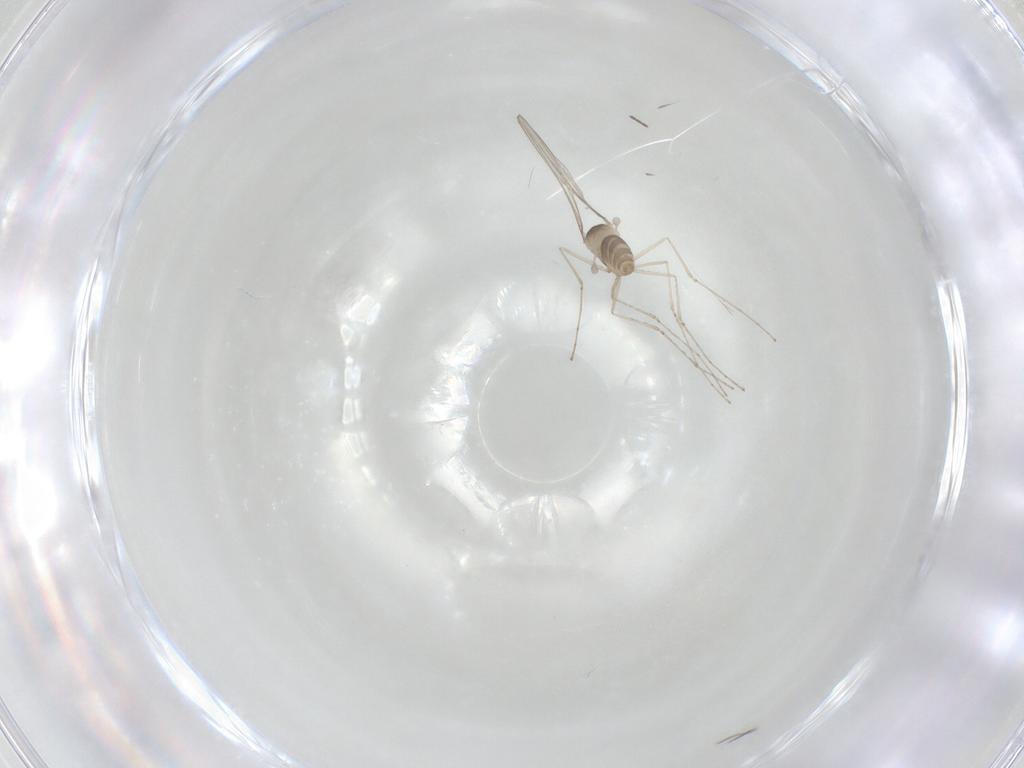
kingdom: Animalia
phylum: Arthropoda
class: Insecta
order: Diptera
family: Cecidomyiidae
